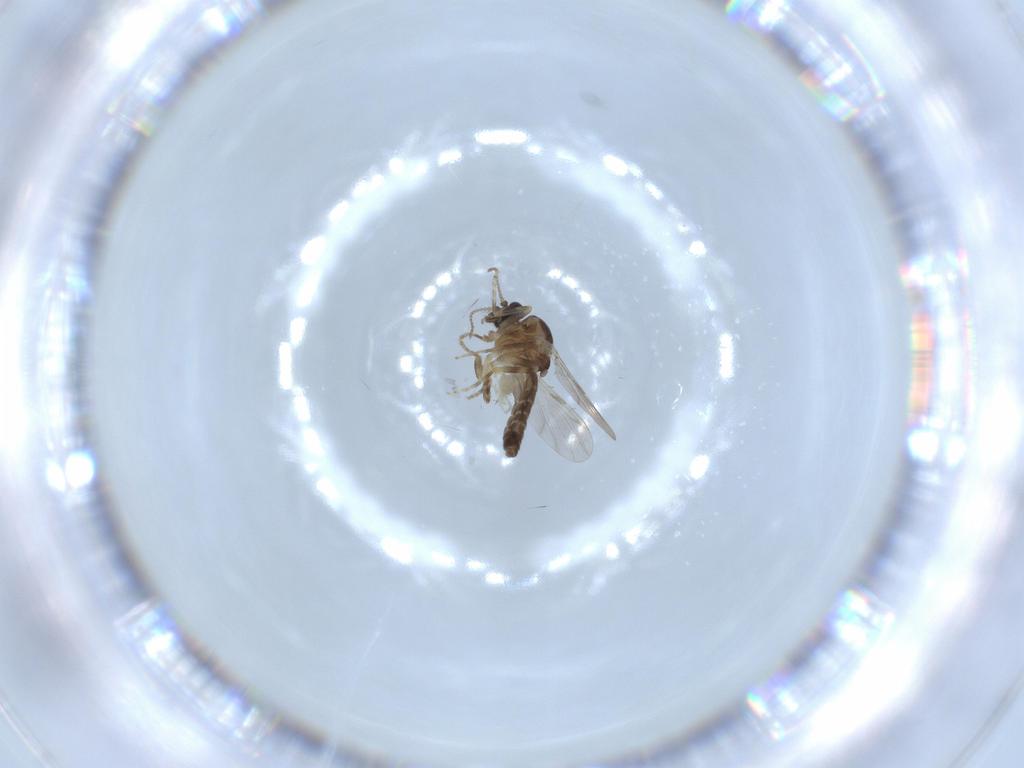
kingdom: Animalia
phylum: Arthropoda
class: Insecta
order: Diptera
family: Ceratopogonidae
